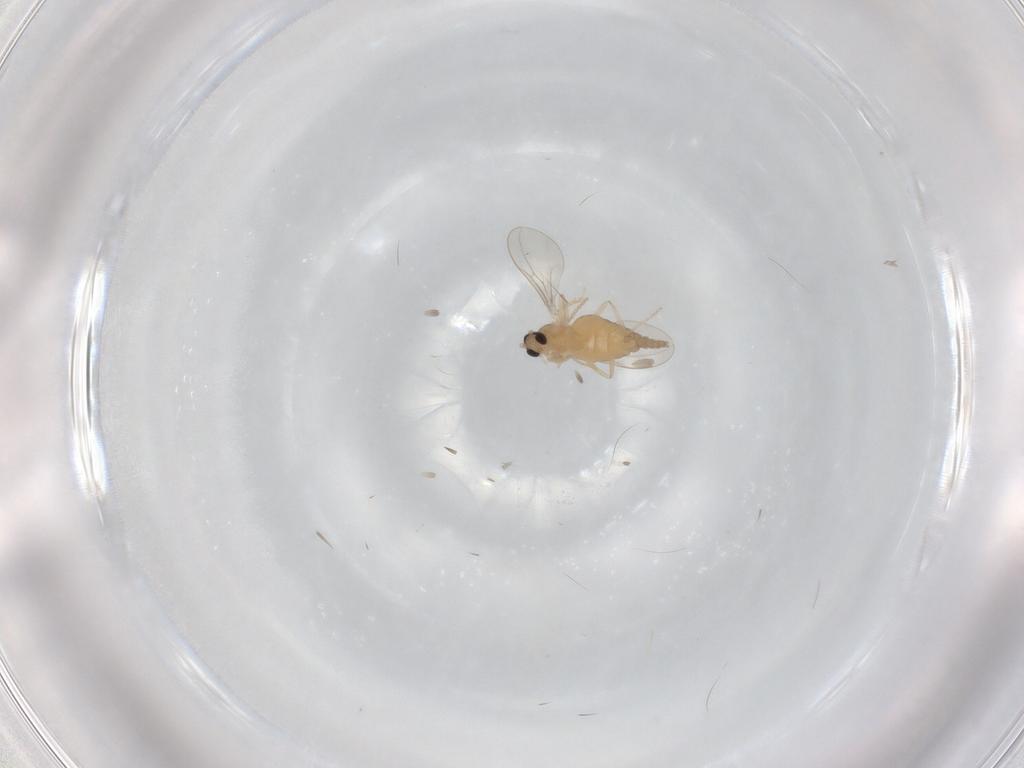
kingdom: Animalia
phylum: Arthropoda
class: Insecta
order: Diptera
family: Cecidomyiidae
